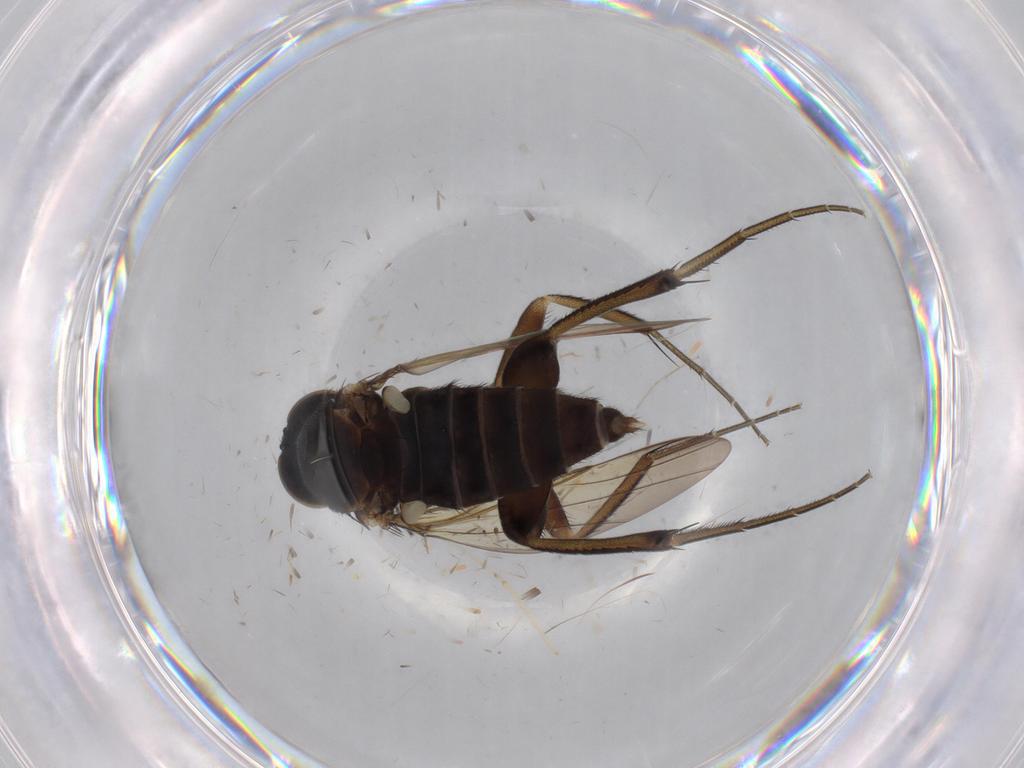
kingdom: Animalia
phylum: Arthropoda
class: Insecta
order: Diptera
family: Phoridae
